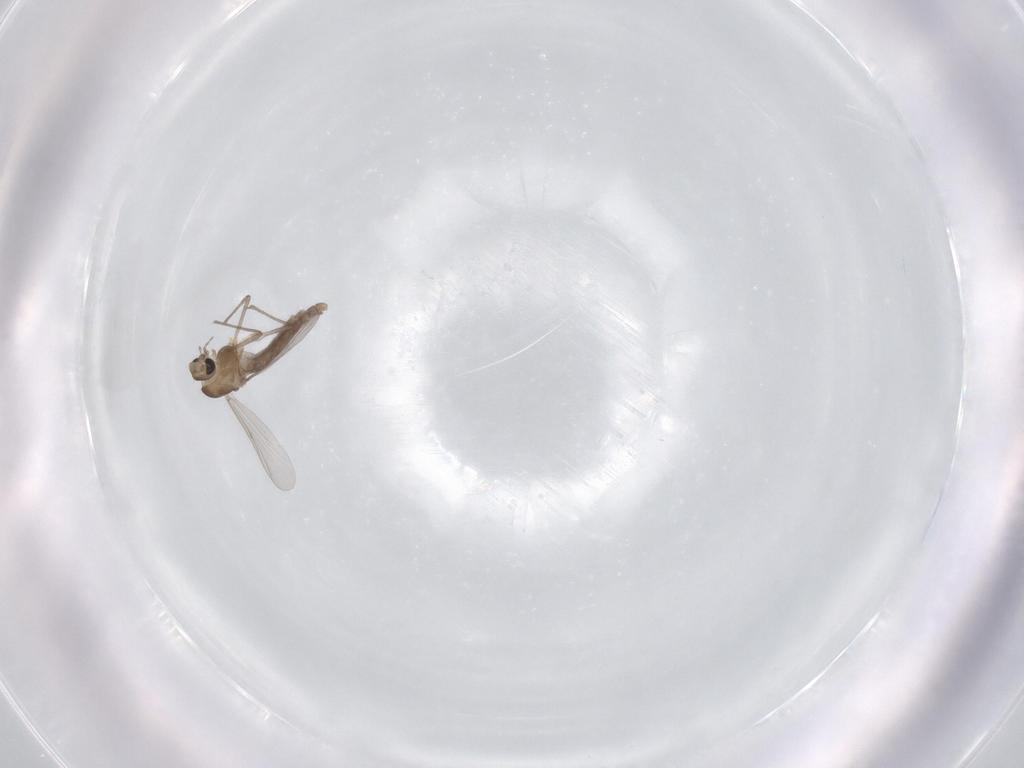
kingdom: Animalia
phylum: Arthropoda
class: Insecta
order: Diptera
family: Chironomidae
